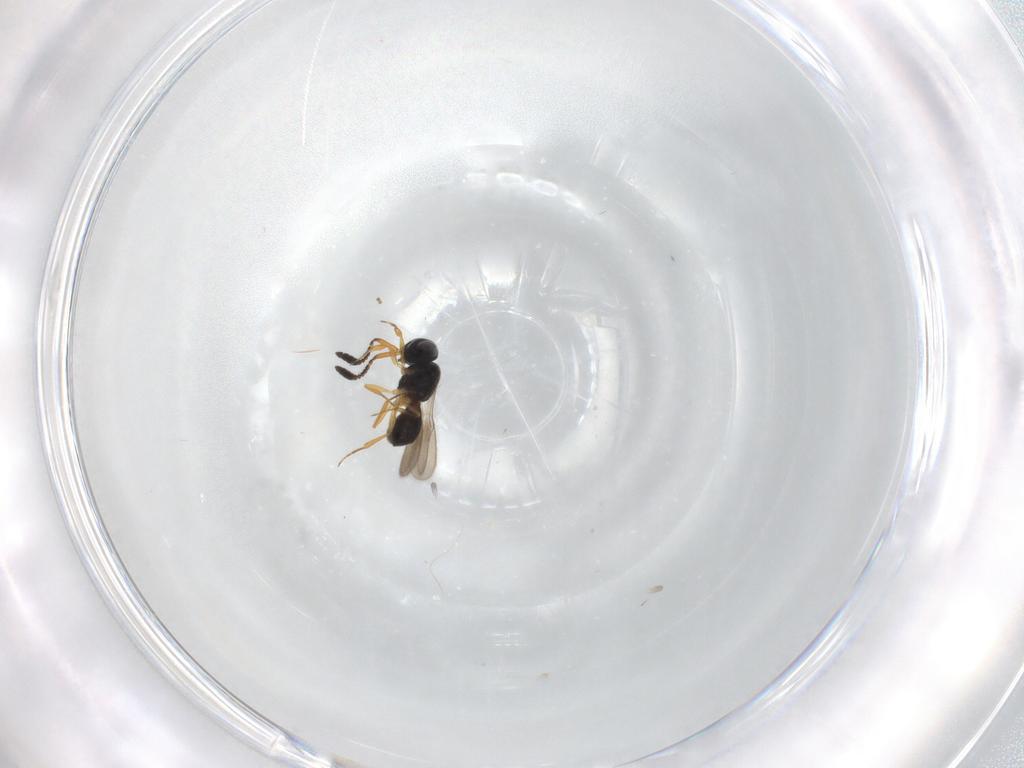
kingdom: Animalia
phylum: Arthropoda
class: Insecta
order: Hymenoptera
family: Scelionidae
